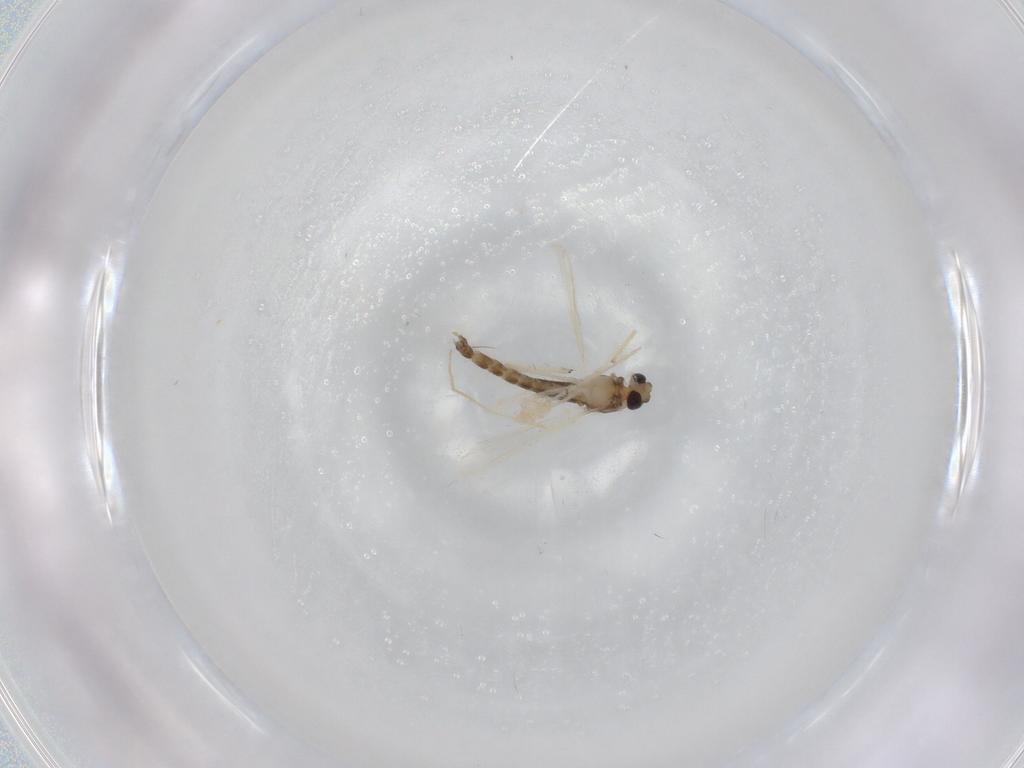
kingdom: Animalia
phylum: Arthropoda
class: Insecta
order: Diptera
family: Chironomidae
